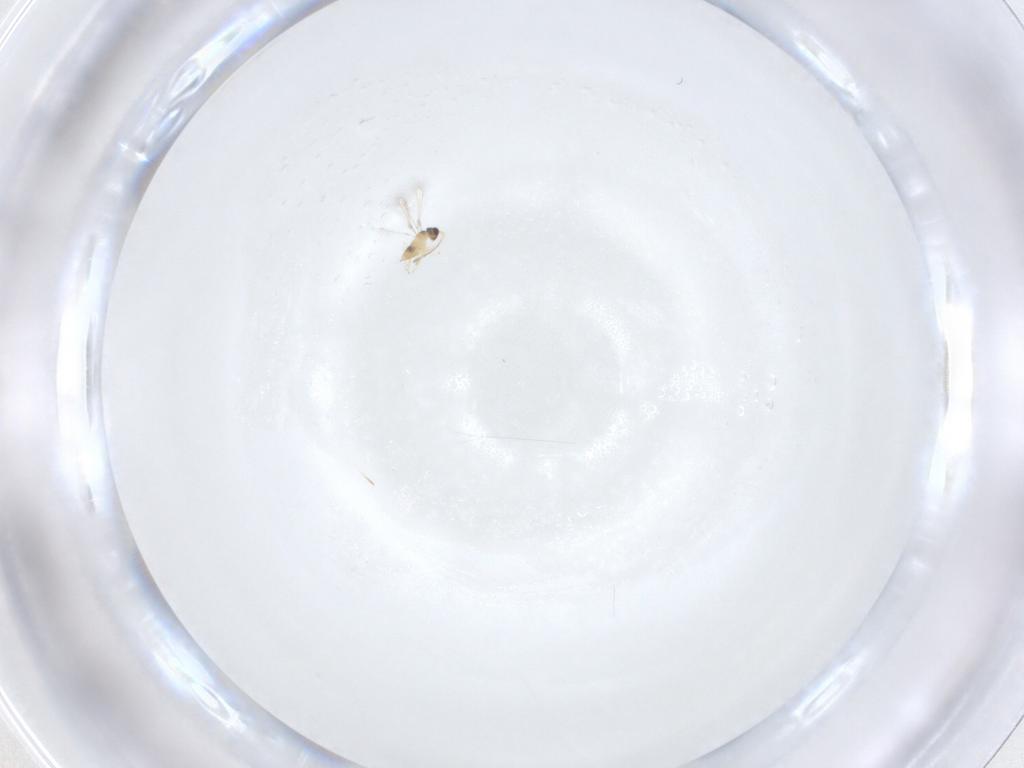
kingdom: Animalia
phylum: Arthropoda
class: Insecta
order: Hymenoptera
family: Mymaridae
